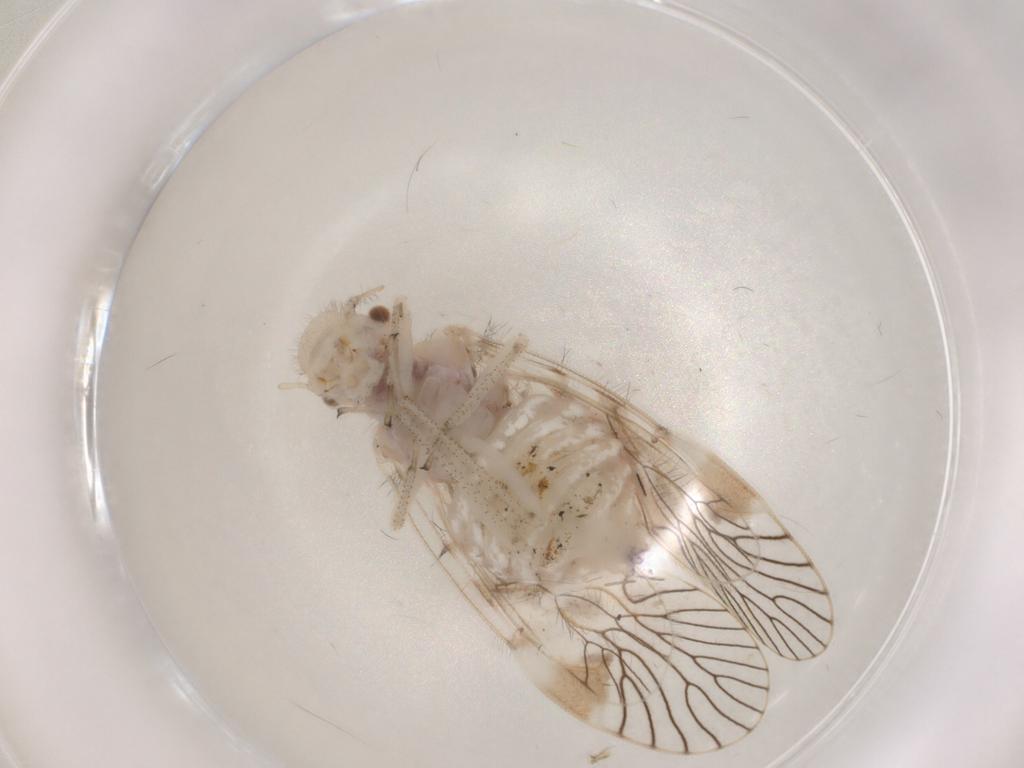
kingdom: Animalia
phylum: Arthropoda
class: Insecta
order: Psocodea
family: Amphipsocidae
